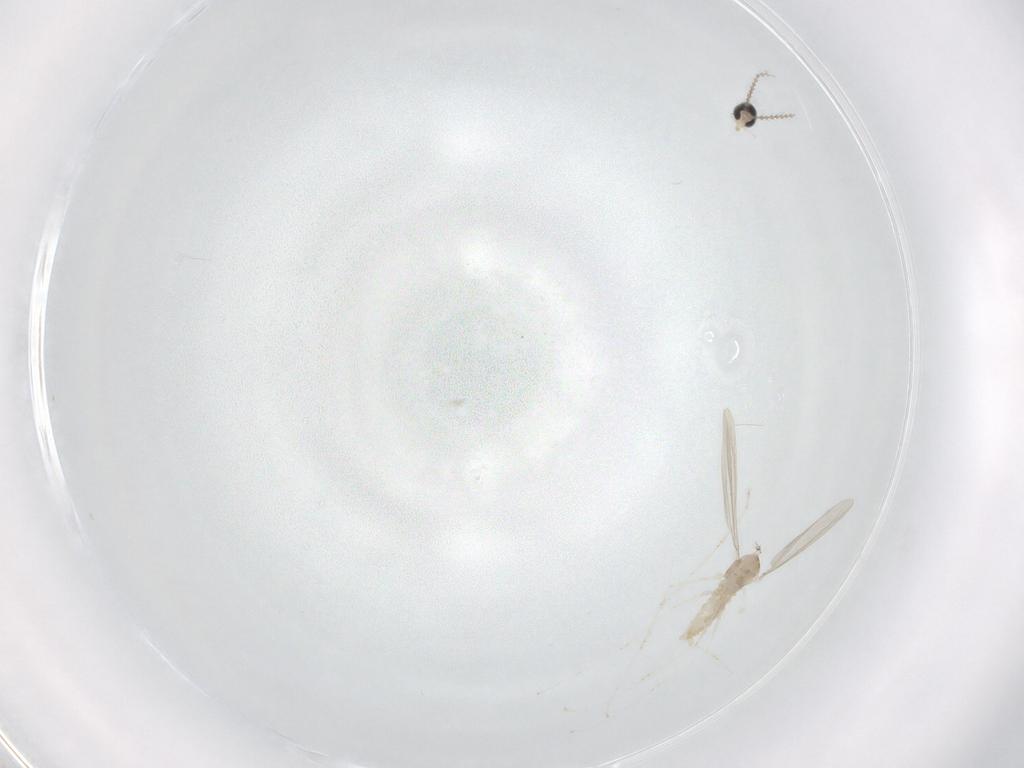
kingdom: Animalia
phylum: Arthropoda
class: Insecta
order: Diptera
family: Cecidomyiidae
